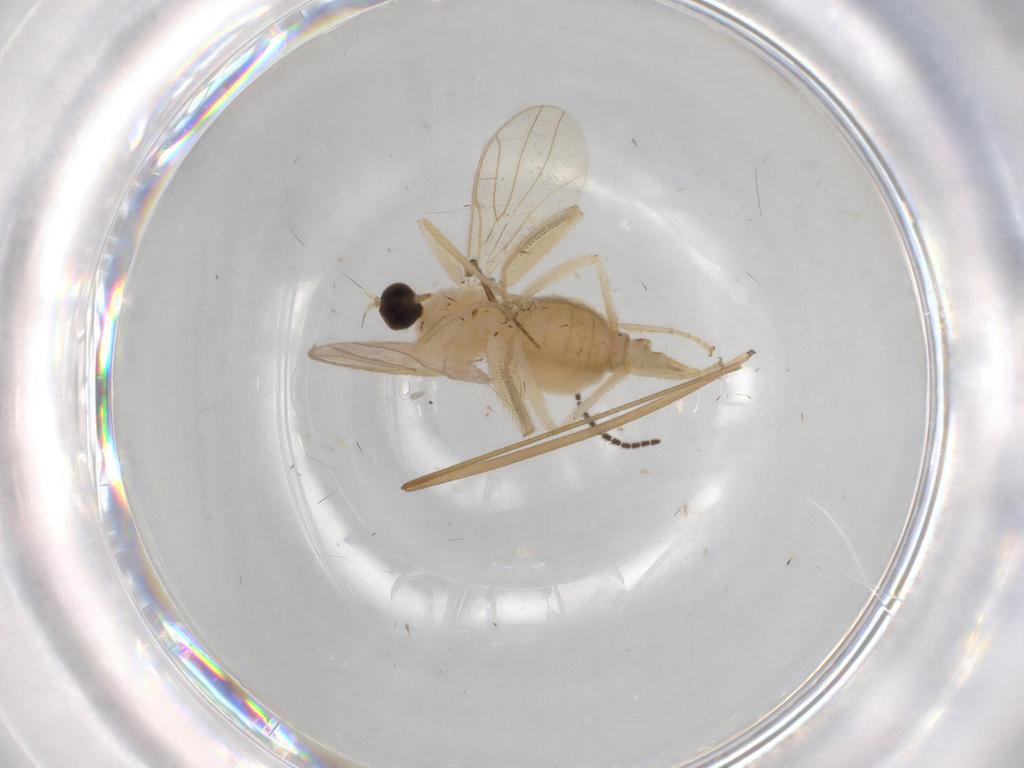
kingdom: Animalia
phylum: Arthropoda
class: Insecta
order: Diptera
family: Hybotidae
